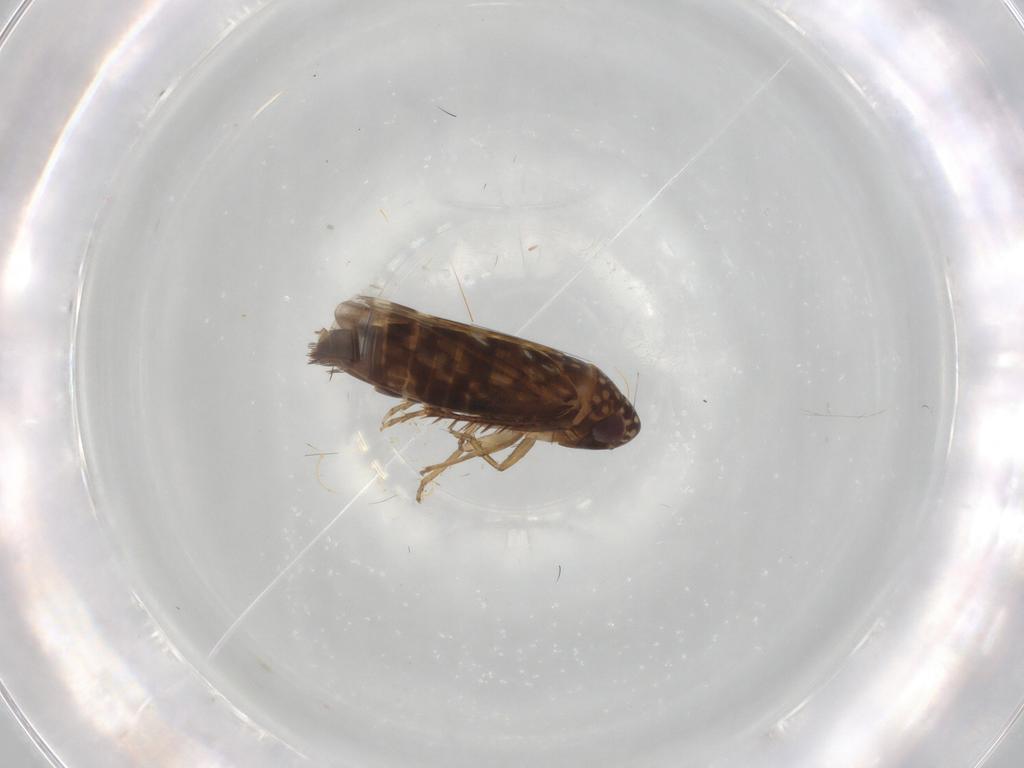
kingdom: Animalia
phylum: Arthropoda
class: Insecta
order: Hemiptera
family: Cicadellidae
